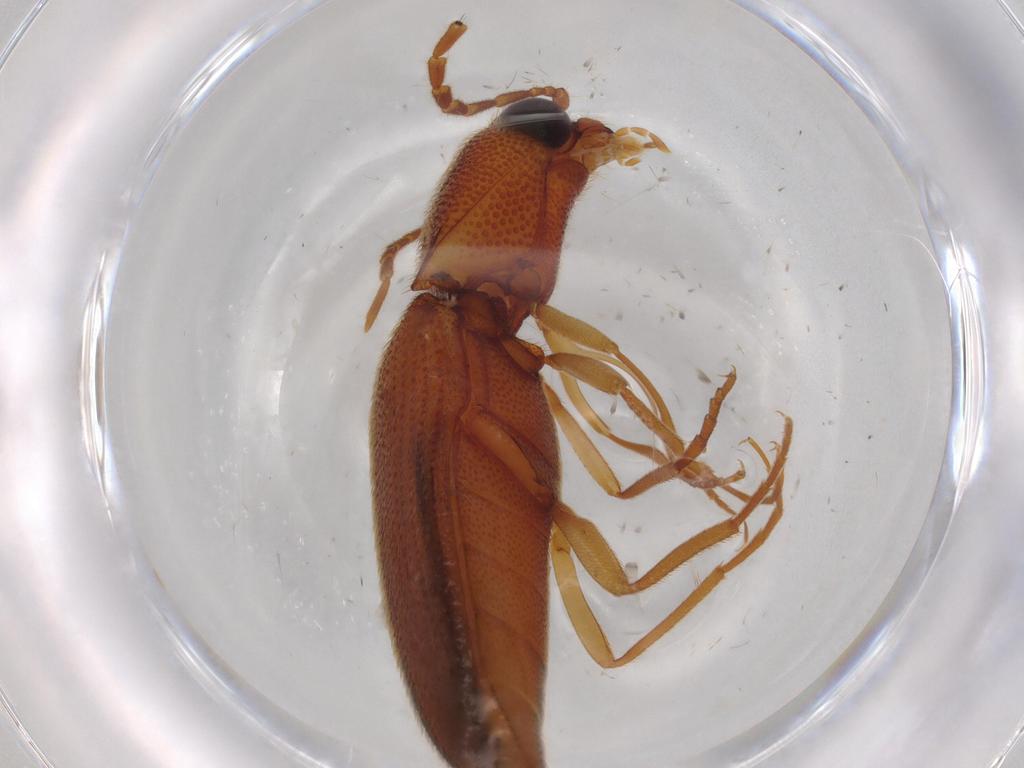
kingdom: Animalia
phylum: Arthropoda
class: Insecta
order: Coleoptera
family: Elateridae
